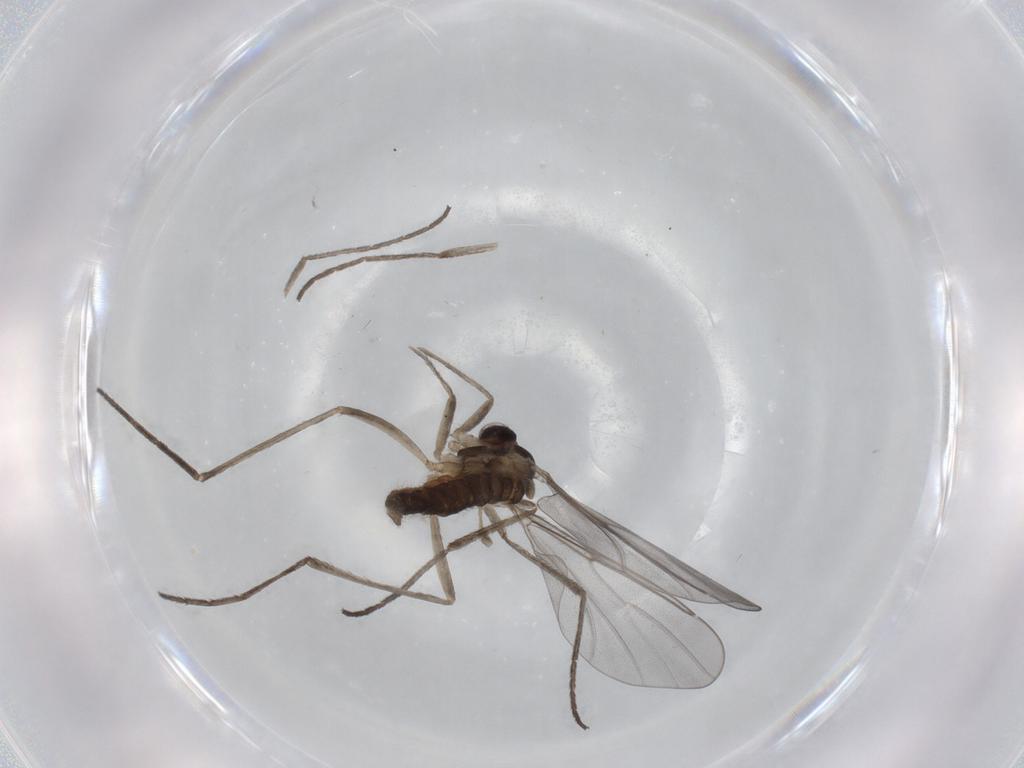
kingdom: Animalia
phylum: Arthropoda
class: Insecta
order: Diptera
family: Cecidomyiidae
